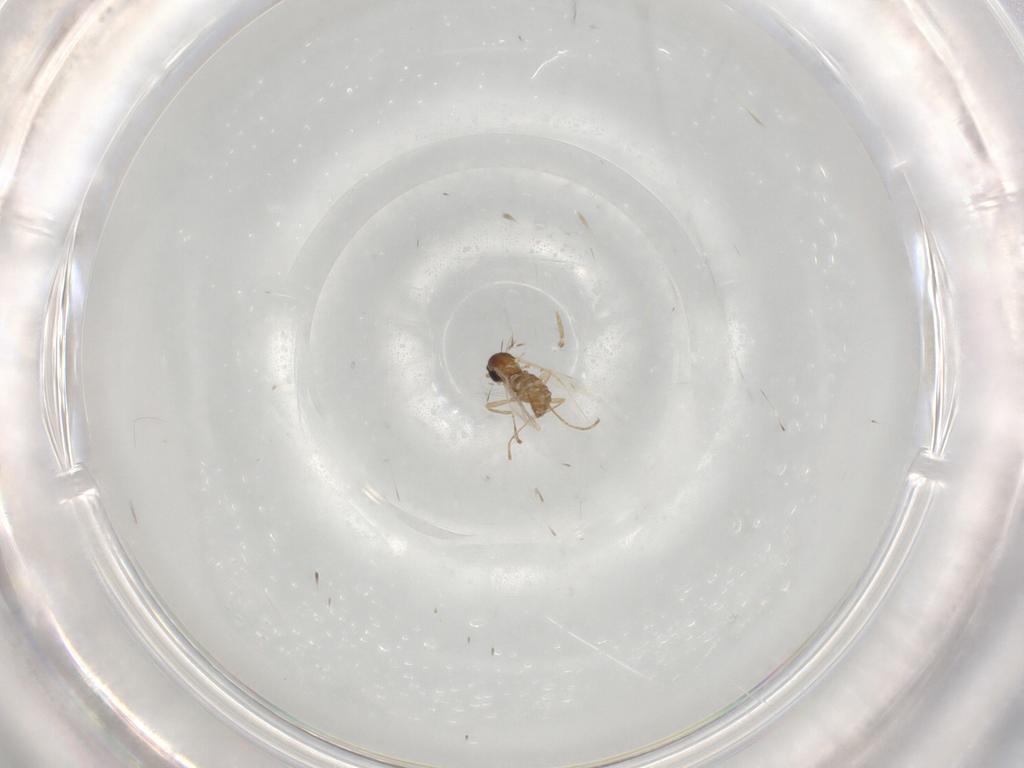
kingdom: Animalia
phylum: Arthropoda
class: Insecta
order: Diptera
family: Cecidomyiidae
